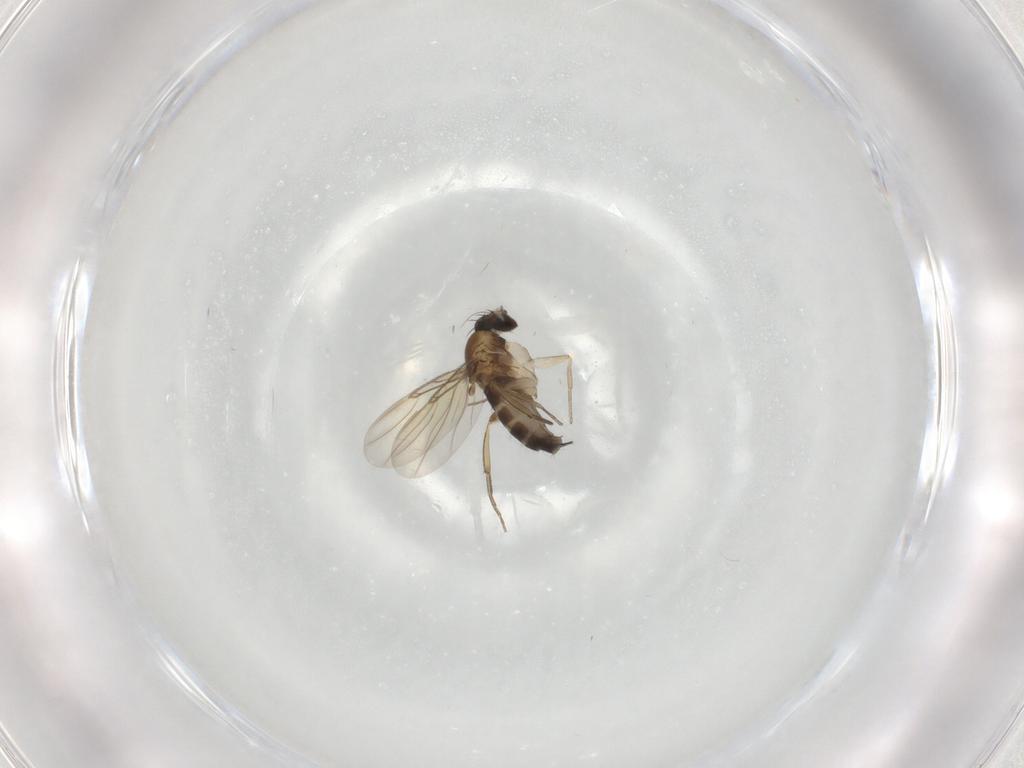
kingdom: Animalia
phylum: Arthropoda
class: Insecta
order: Diptera
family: Phoridae
